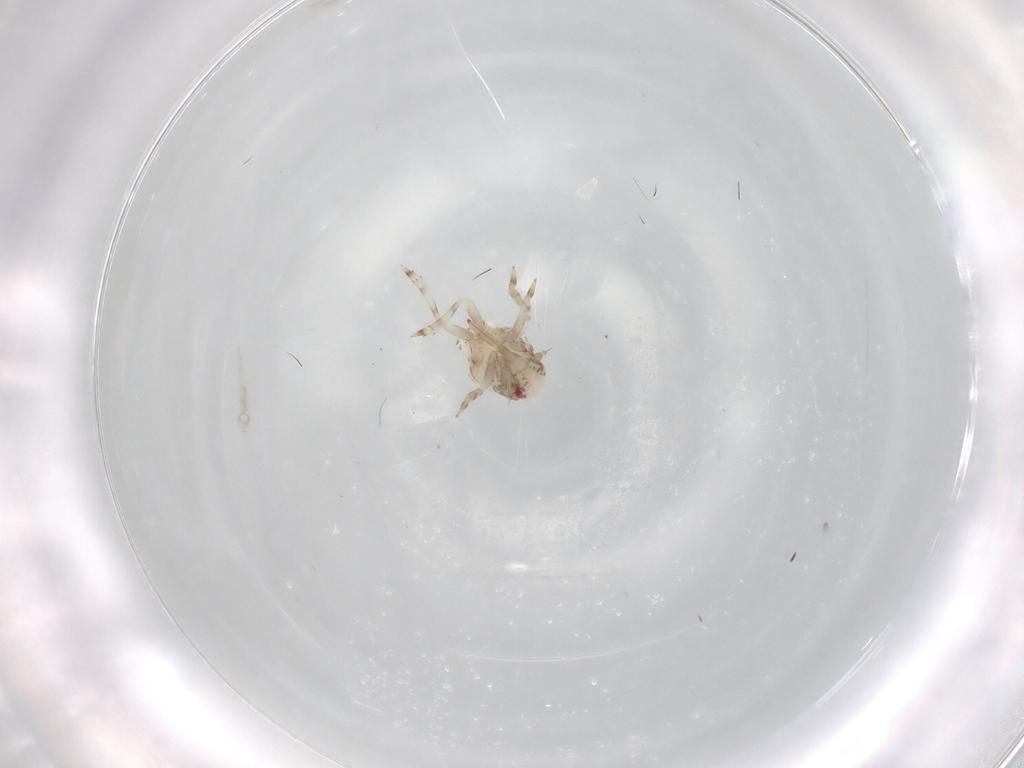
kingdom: Animalia
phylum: Arthropoda
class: Insecta
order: Hemiptera
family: Acanaloniidae
